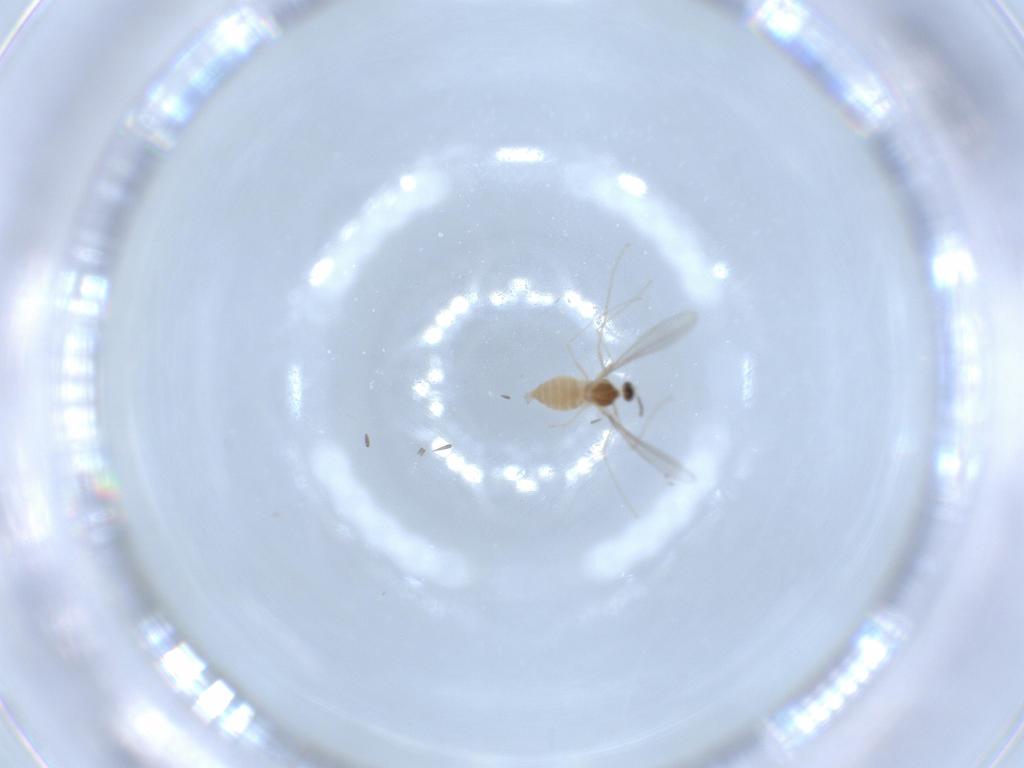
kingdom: Animalia
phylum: Arthropoda
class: Insecta
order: Diptera
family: Cecidomyiidae
